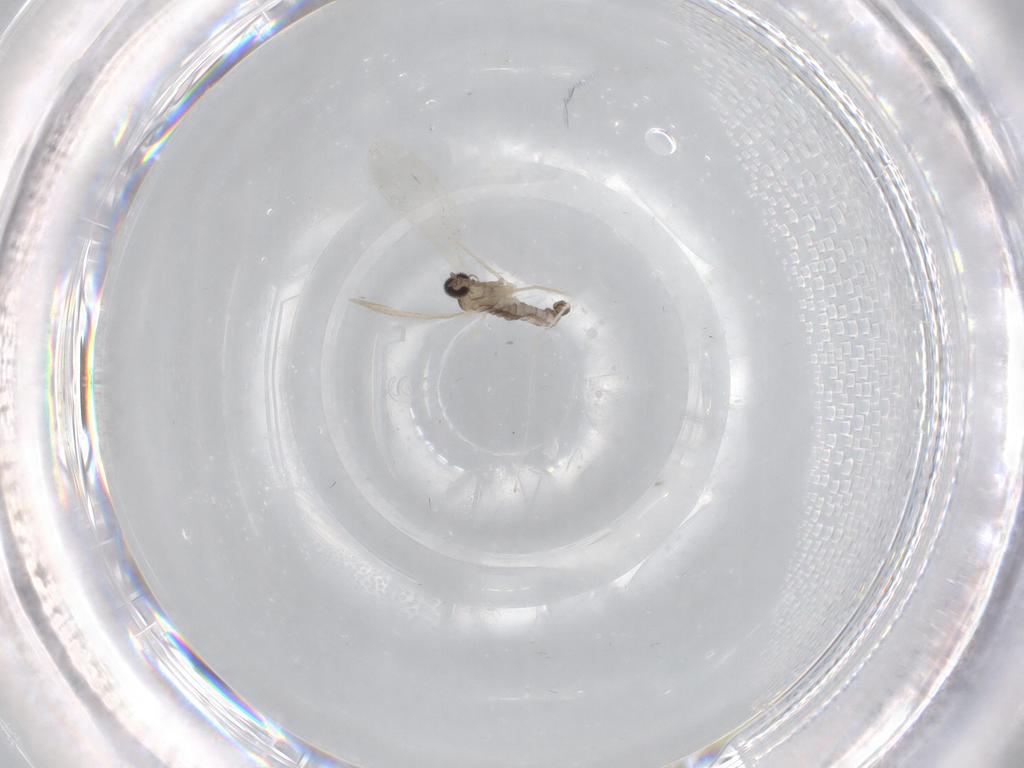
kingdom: Animalia
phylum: Arthropoda
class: Insecta
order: Diptera
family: Cecidomyiidae
